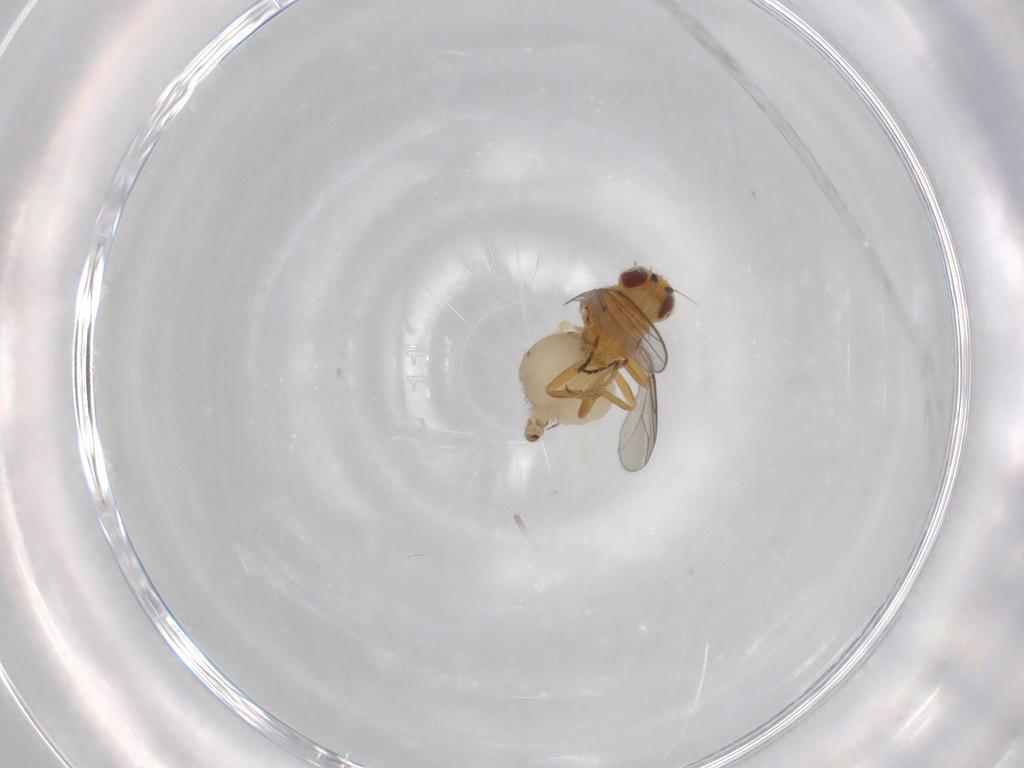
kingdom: Animalia
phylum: Arthropoda
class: Insecta
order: Diptera
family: Chloropidae
